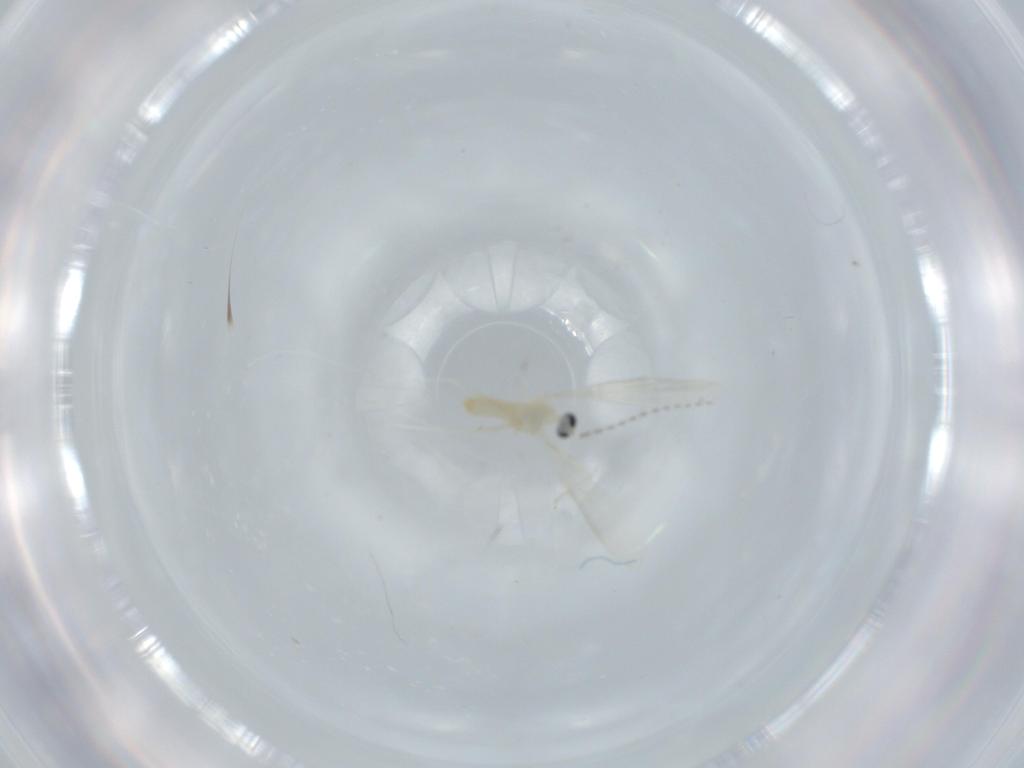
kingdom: Animalia
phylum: Arthropoda
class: Insecta
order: Diptera
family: Cecidomyiidae
